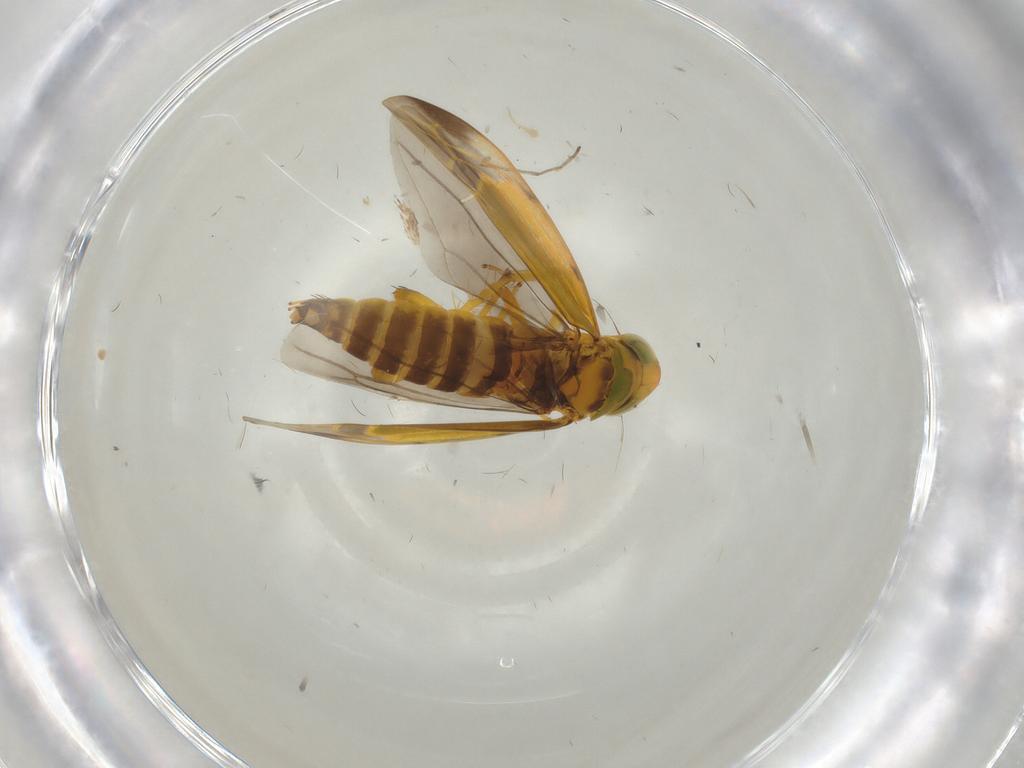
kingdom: Animalia
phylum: Arthropoda
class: Insecta
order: Hemiptera
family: Cicadellidae
